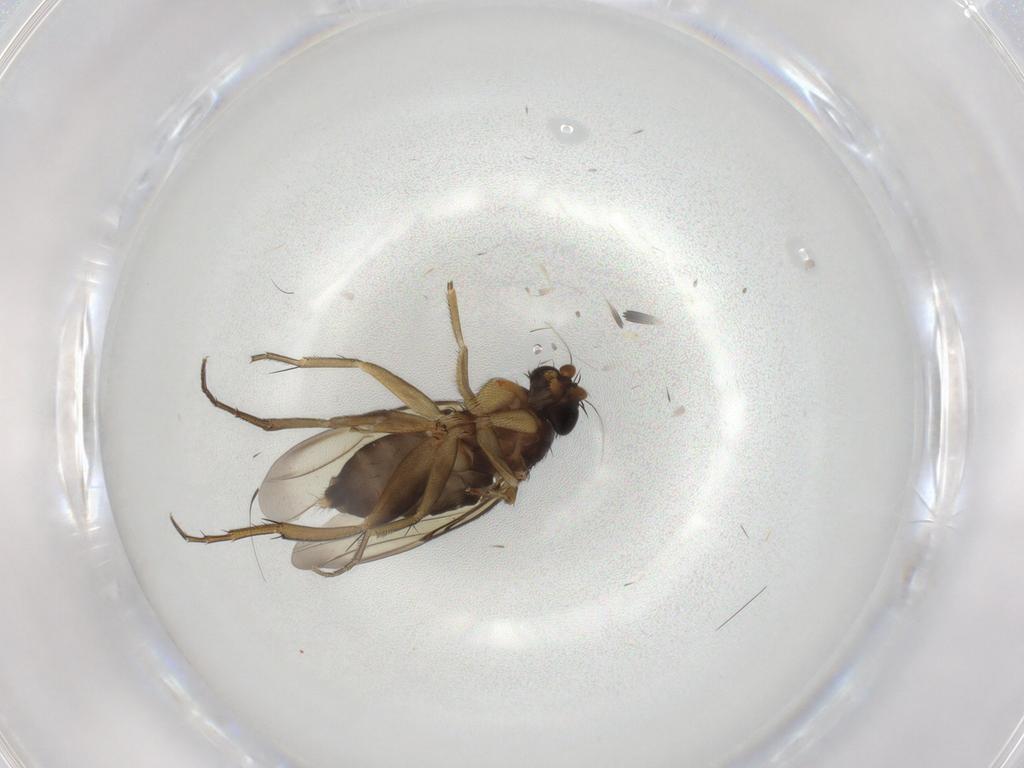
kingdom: Animalia
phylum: Arthropoda
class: Insecta
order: Diptera
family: Phoridae
